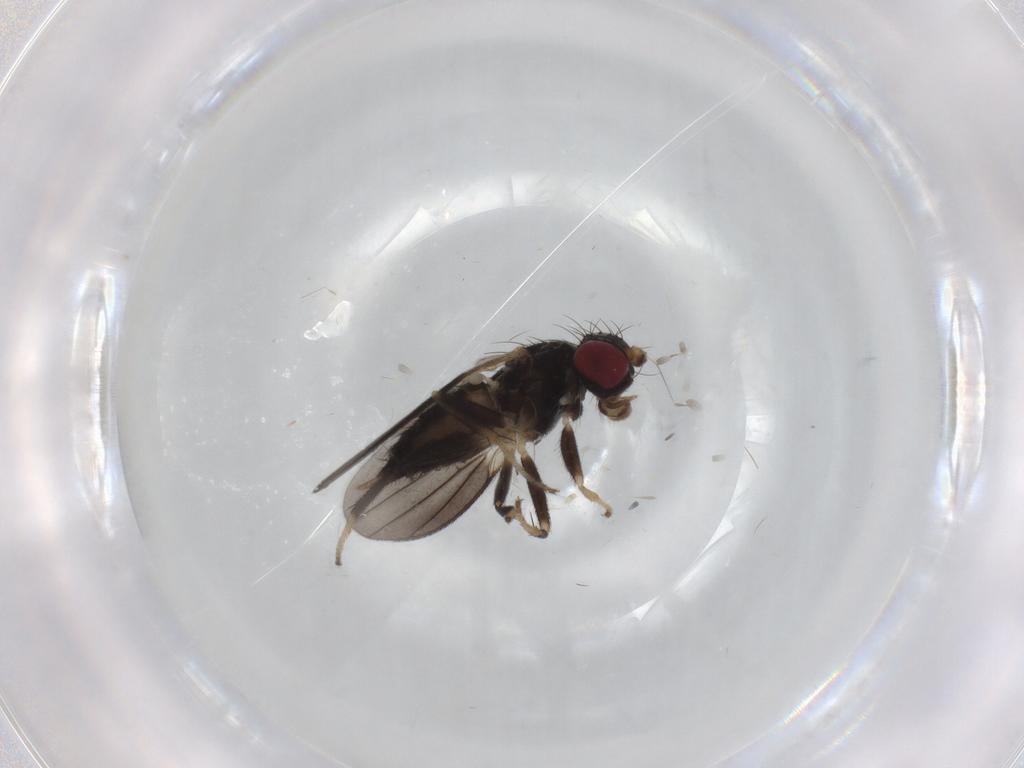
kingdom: Animalia
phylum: Arthropoda
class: Insecta
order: Diptera
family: Clusiidae
